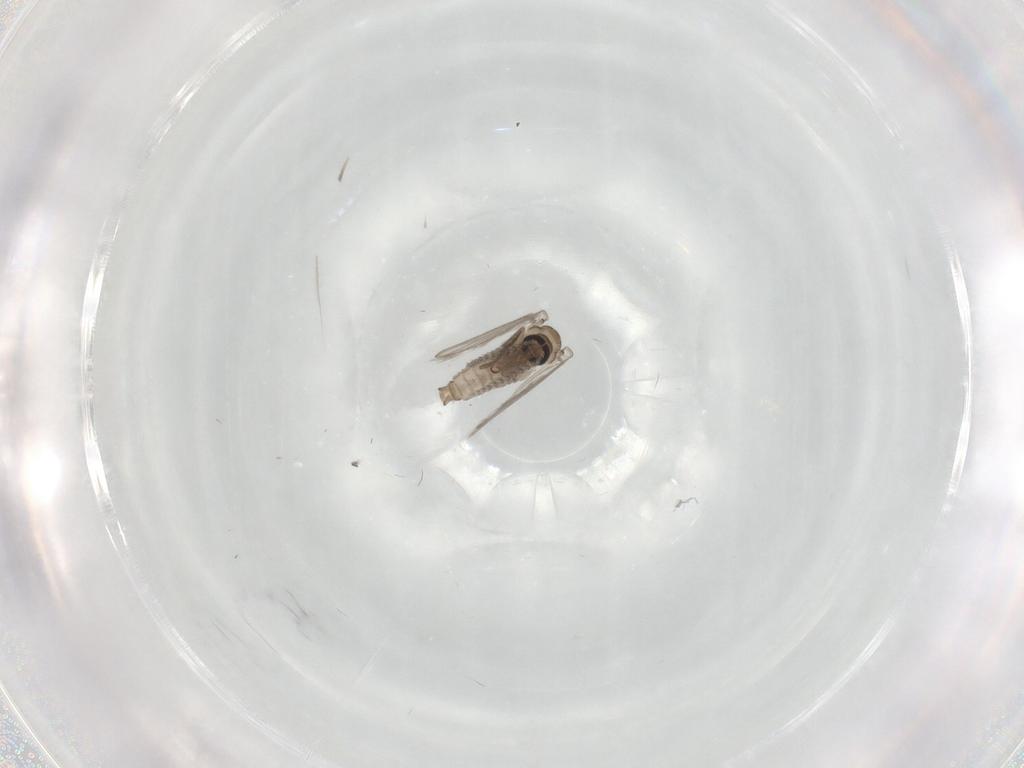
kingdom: Animalia
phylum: Arthropoda
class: Insecta
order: Diptera
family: Psychodidae
